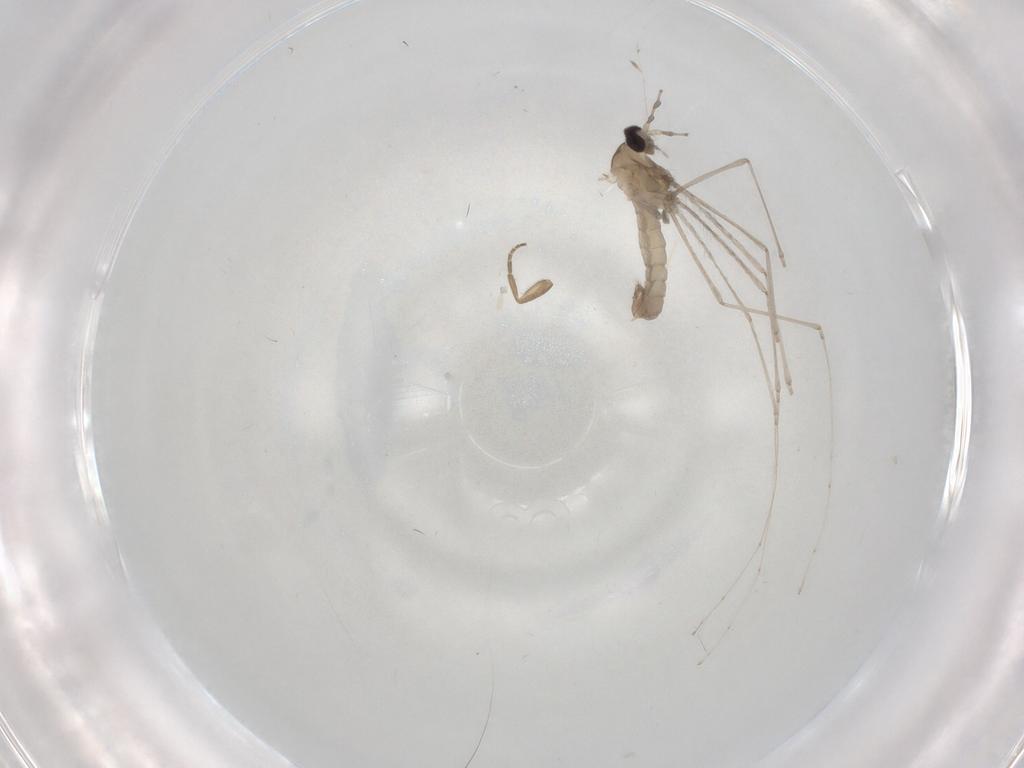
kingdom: Animalia
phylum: Arthropoda
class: Insecta
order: Diptera
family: Cecidomyiidae
